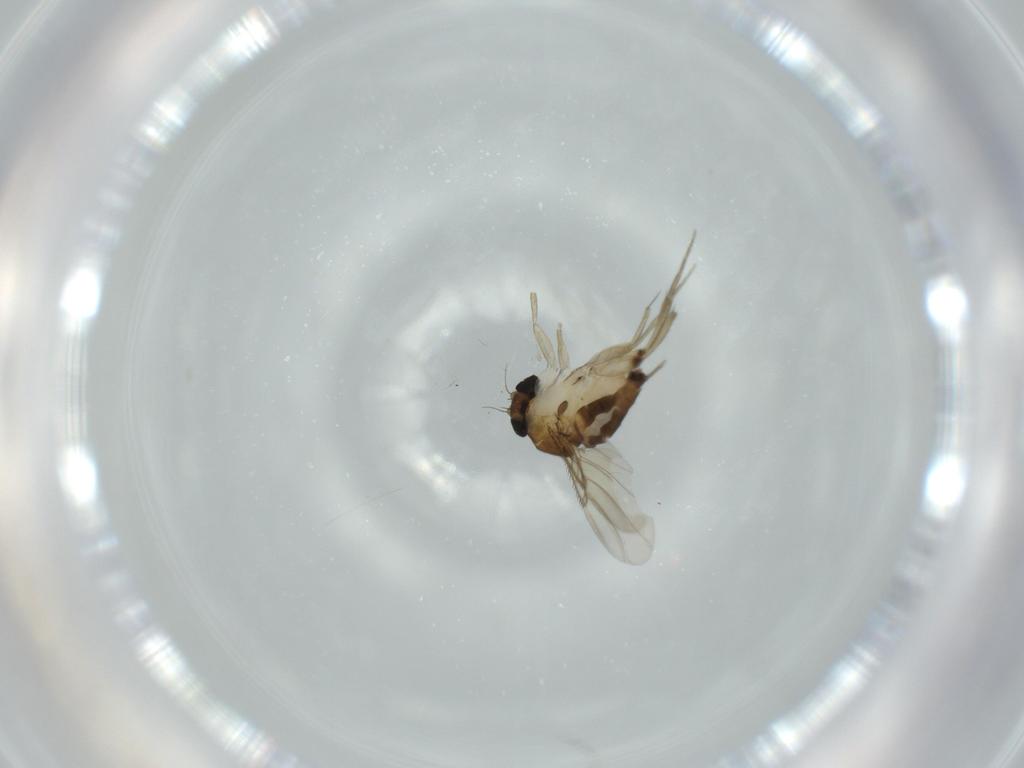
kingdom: Animalia
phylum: Arthropoda
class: Insecta
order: Diptera
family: Phoridae
